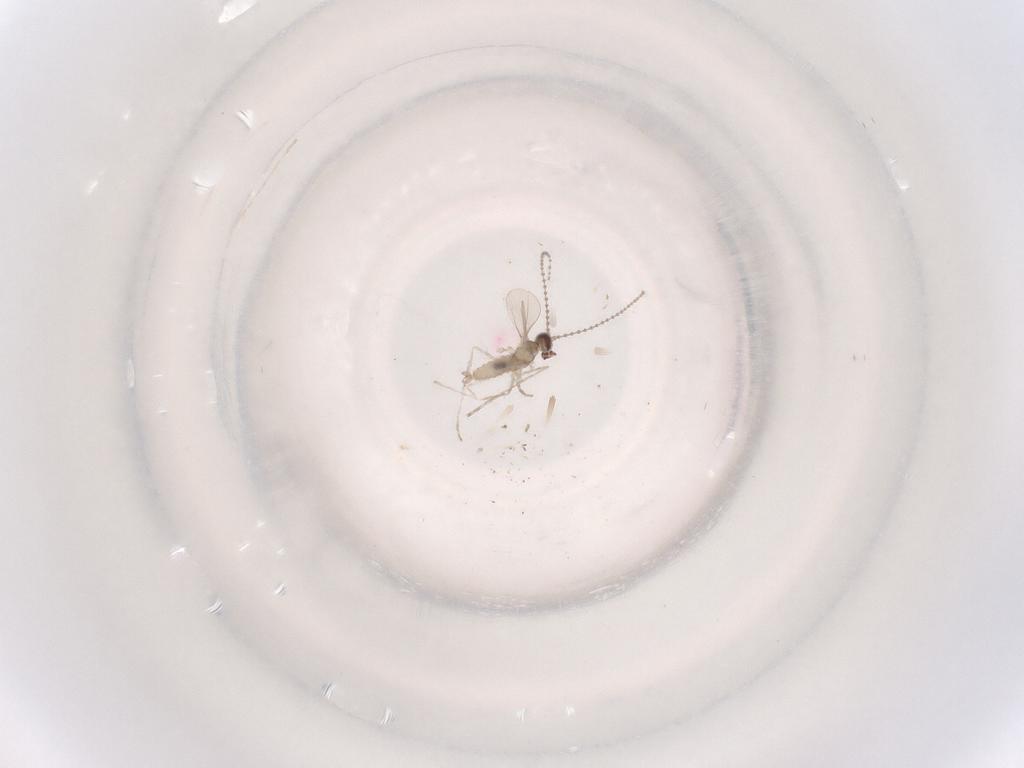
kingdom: Animalia
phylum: Arthropoda
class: Insecta
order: Diptera
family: Cecidomyiidae
